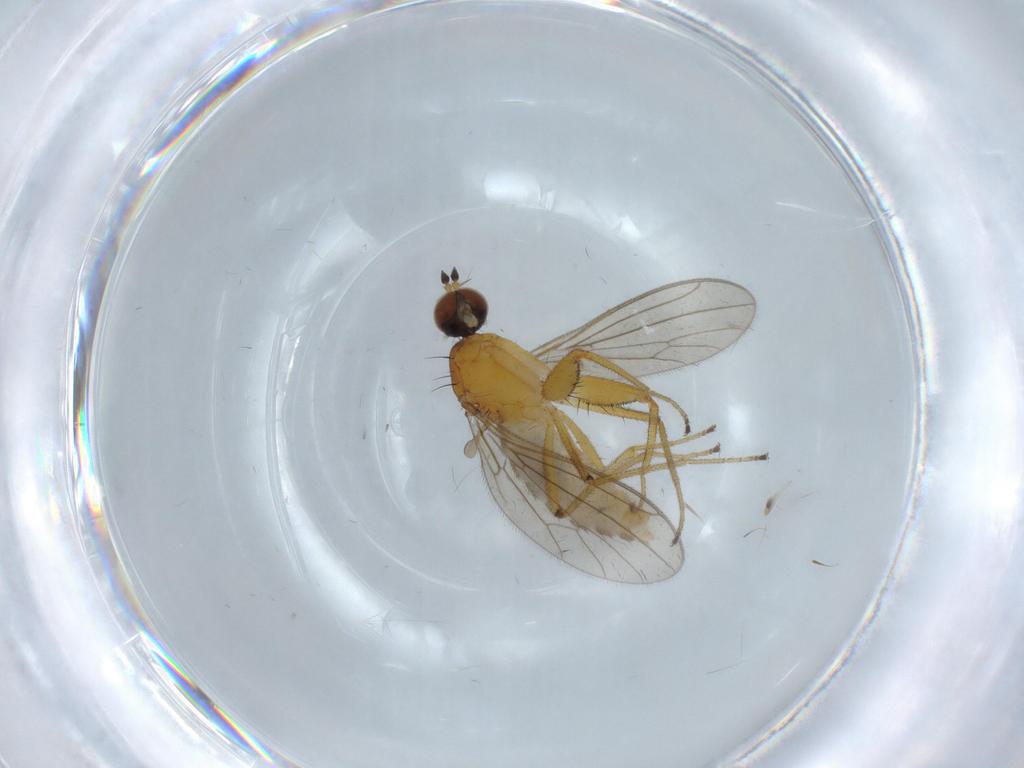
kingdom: Animalia
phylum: Arthropoda
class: Insecta
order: Diptera
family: Empididae
